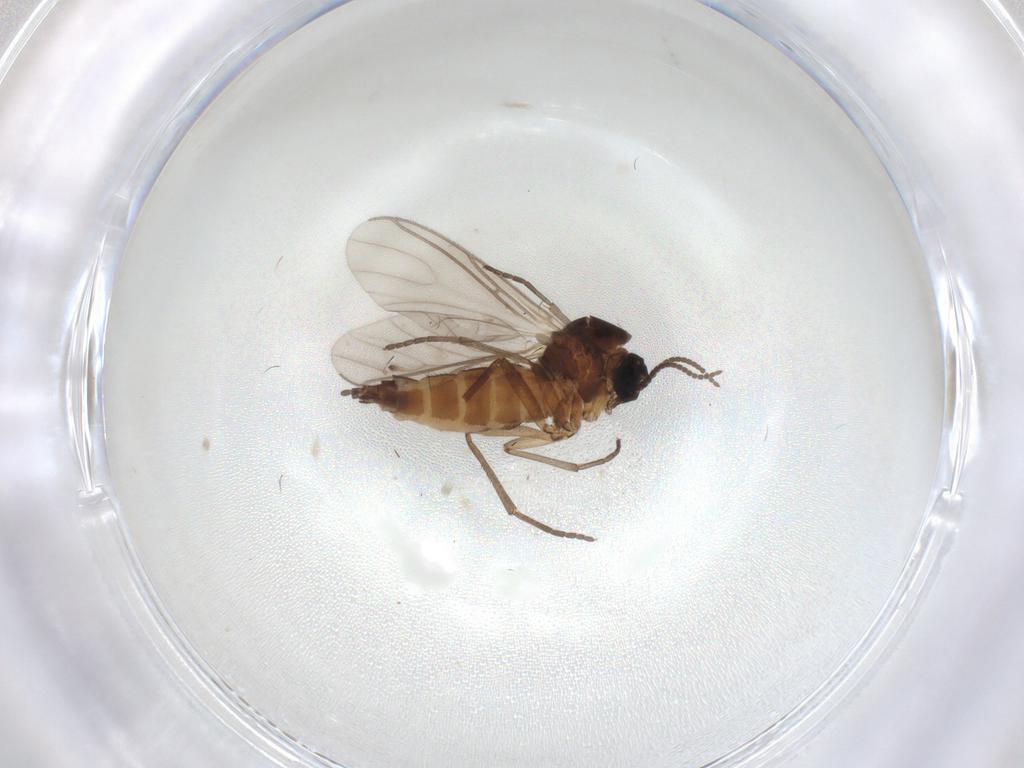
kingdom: Animalia
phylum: Arthropoda
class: Insecta
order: Diptera
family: Sciaridae
